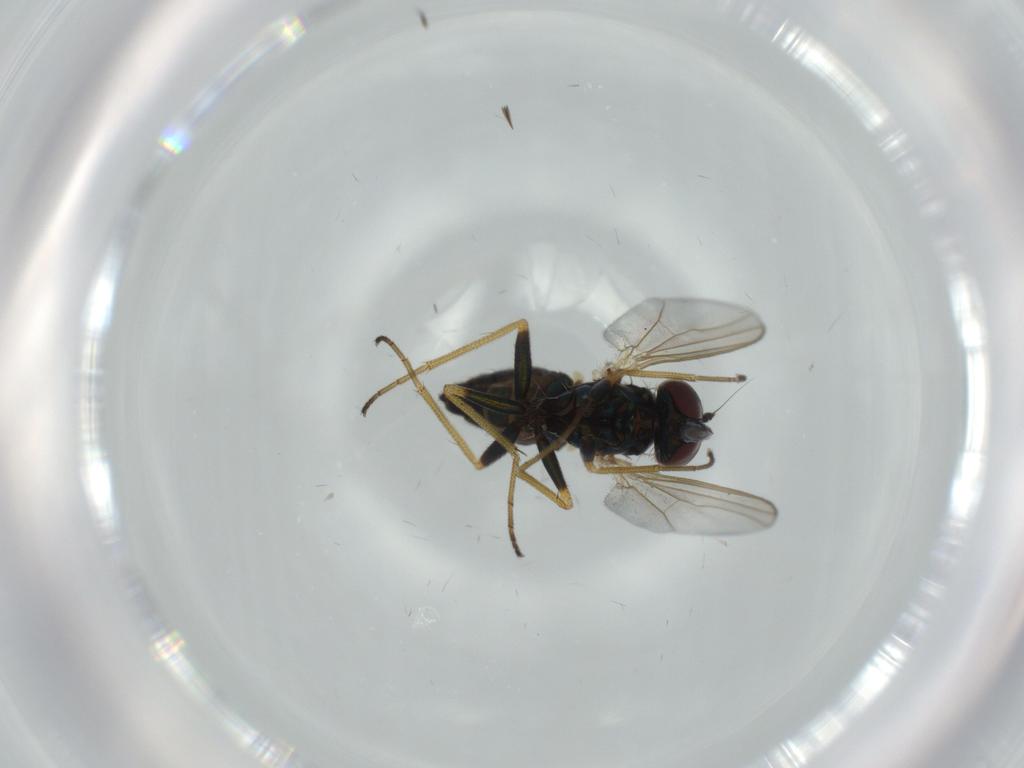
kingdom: Animalia
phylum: Arthropoda
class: Insecta
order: Diptera
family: Dolichopodidae
